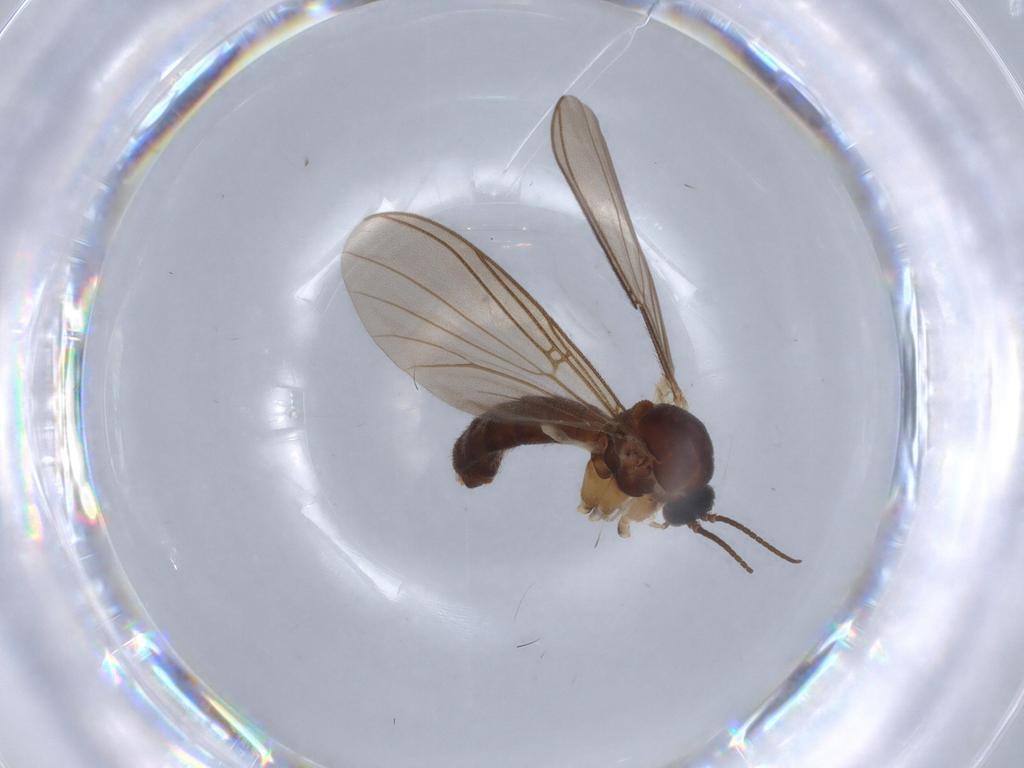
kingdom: Animalia
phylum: Arthropoda
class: Insecta
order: Diptera
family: Mycetophilidae
